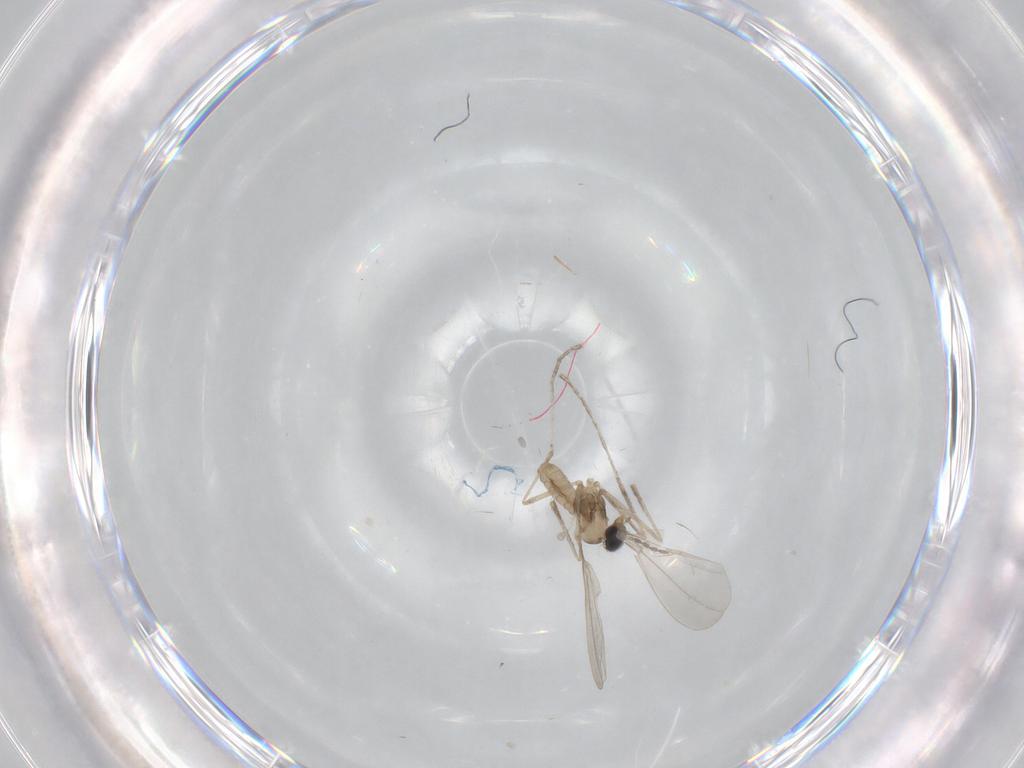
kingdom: Animalia
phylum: Arthropoda
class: Insecta
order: Diptera
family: Cecidomyiidae
